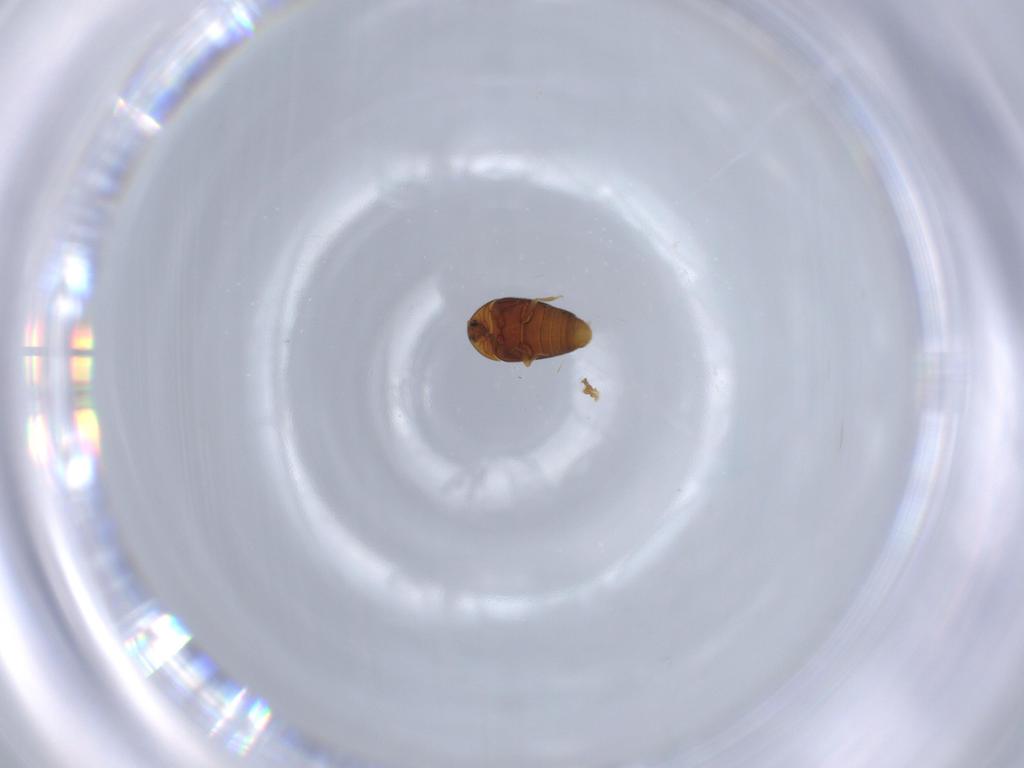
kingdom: Animalia
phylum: Arthropoda
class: Insecta
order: Coleoptera
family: Corylophidae
